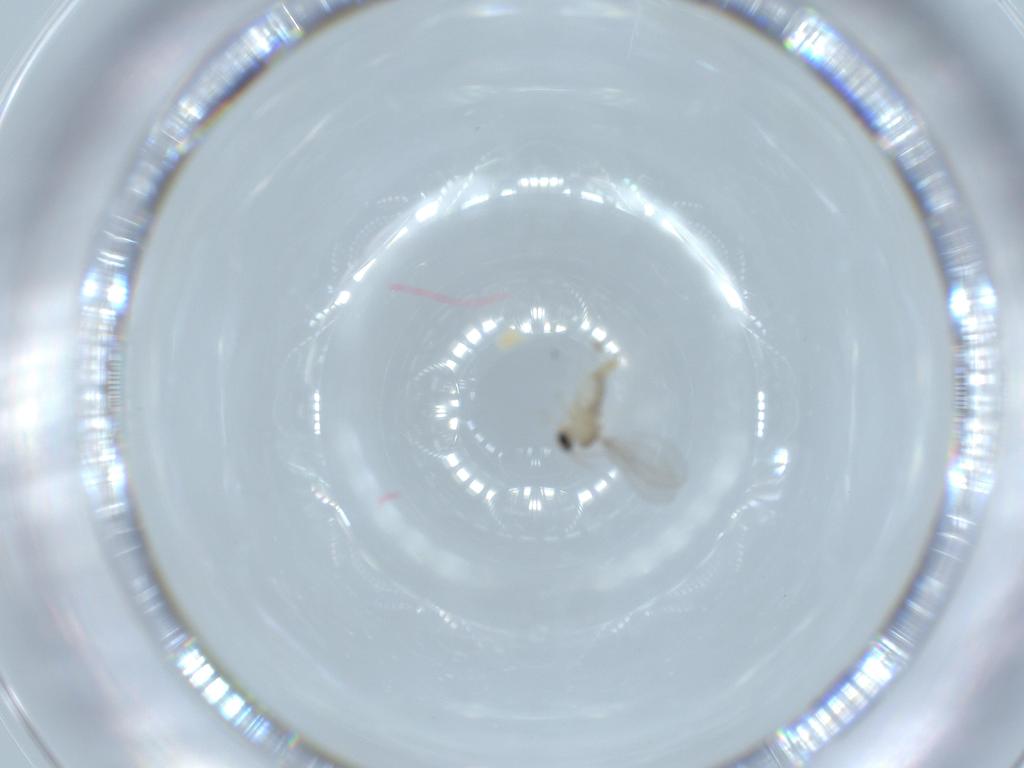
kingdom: Animalia
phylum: Arthropoda
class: Insecta
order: Diptera
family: Cecidomyiidae
